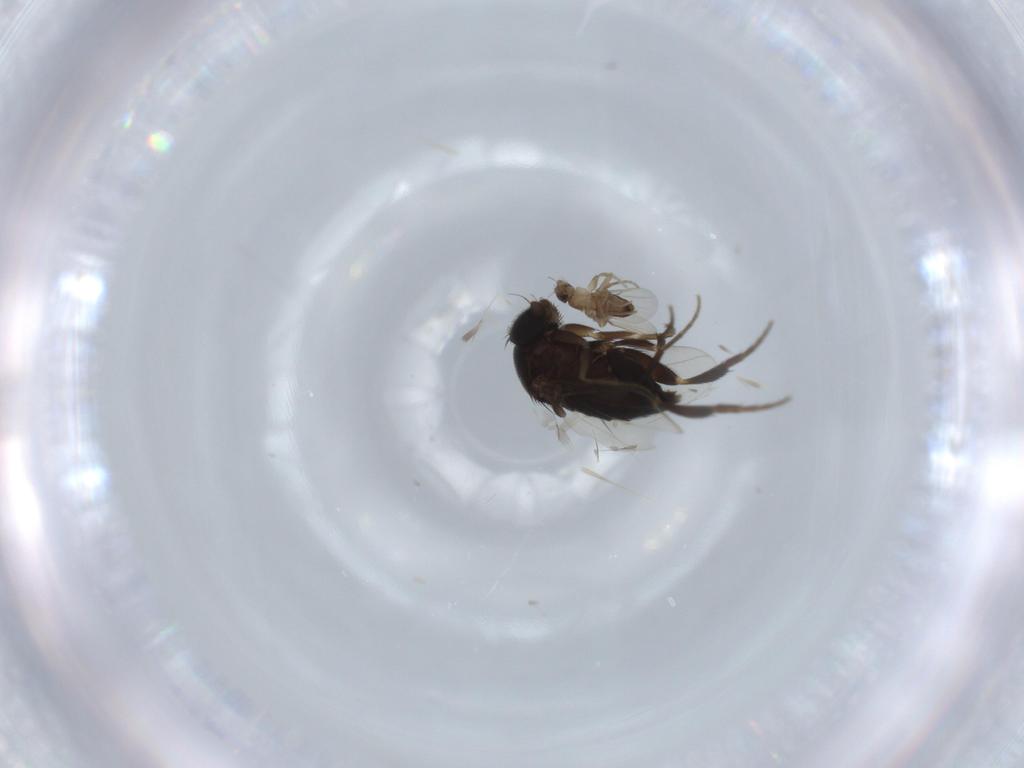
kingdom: Animalia
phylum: Arthropoda
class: Insecta
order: Diptera
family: Phoridae
